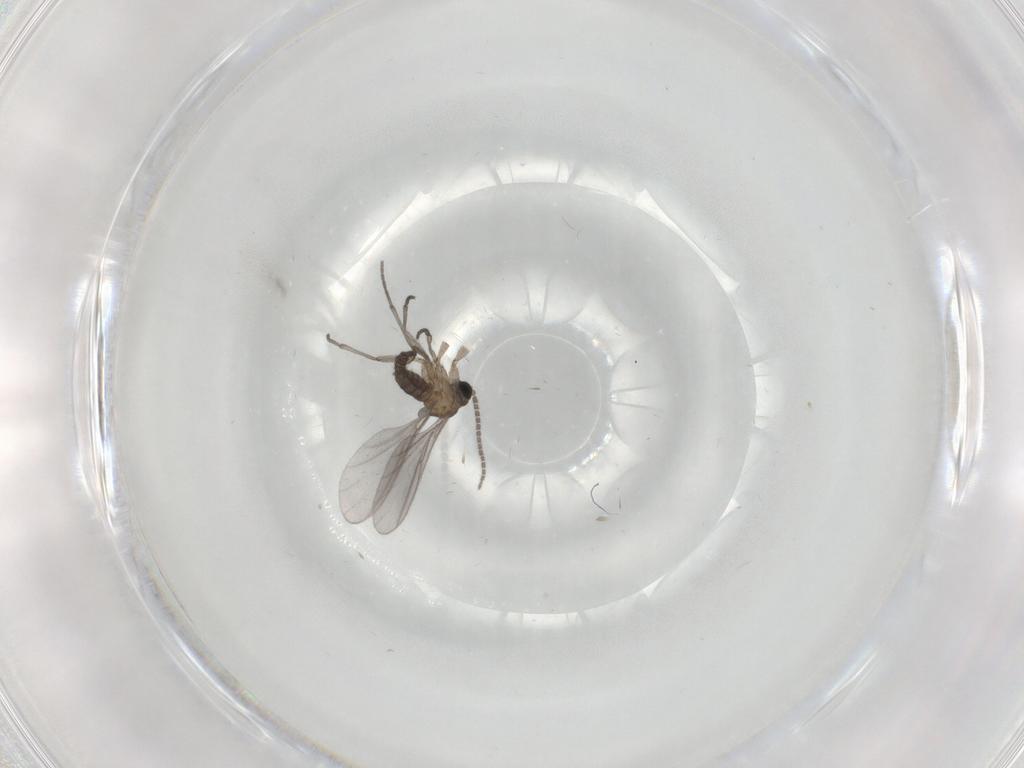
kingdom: Animalia
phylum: Arthropoda
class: Insecta
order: Diptera
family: Sciaridae
